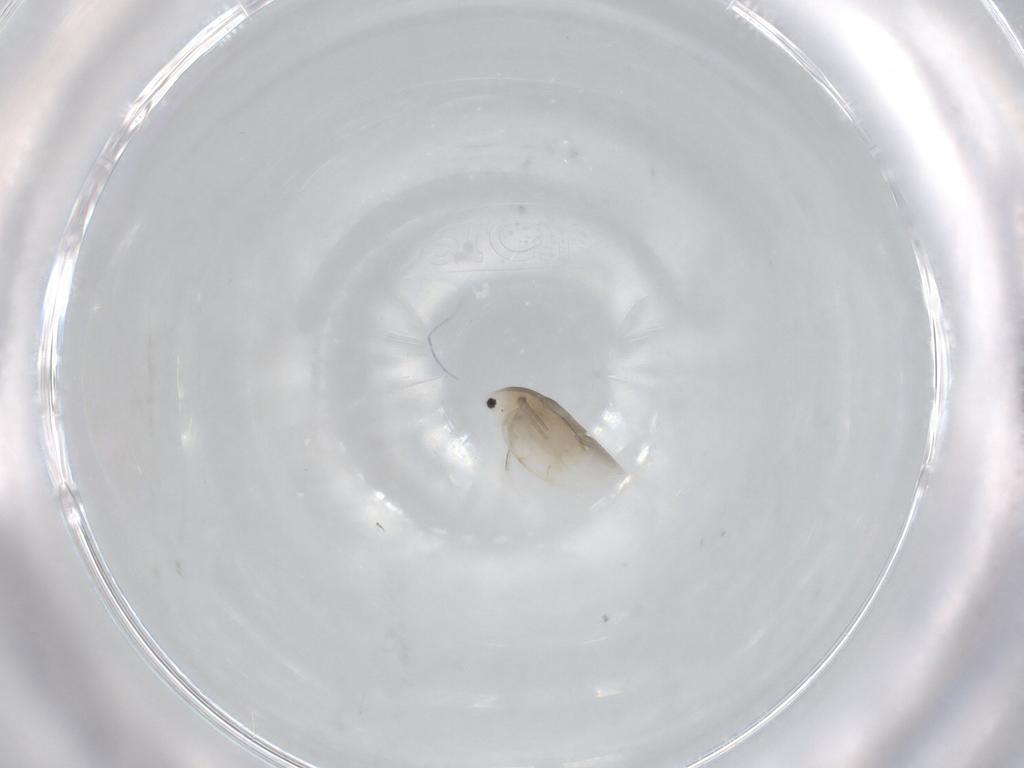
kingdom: Animalia
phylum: Arthropoda
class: Branchiopoda
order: Diplostraca
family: Daphniidae
